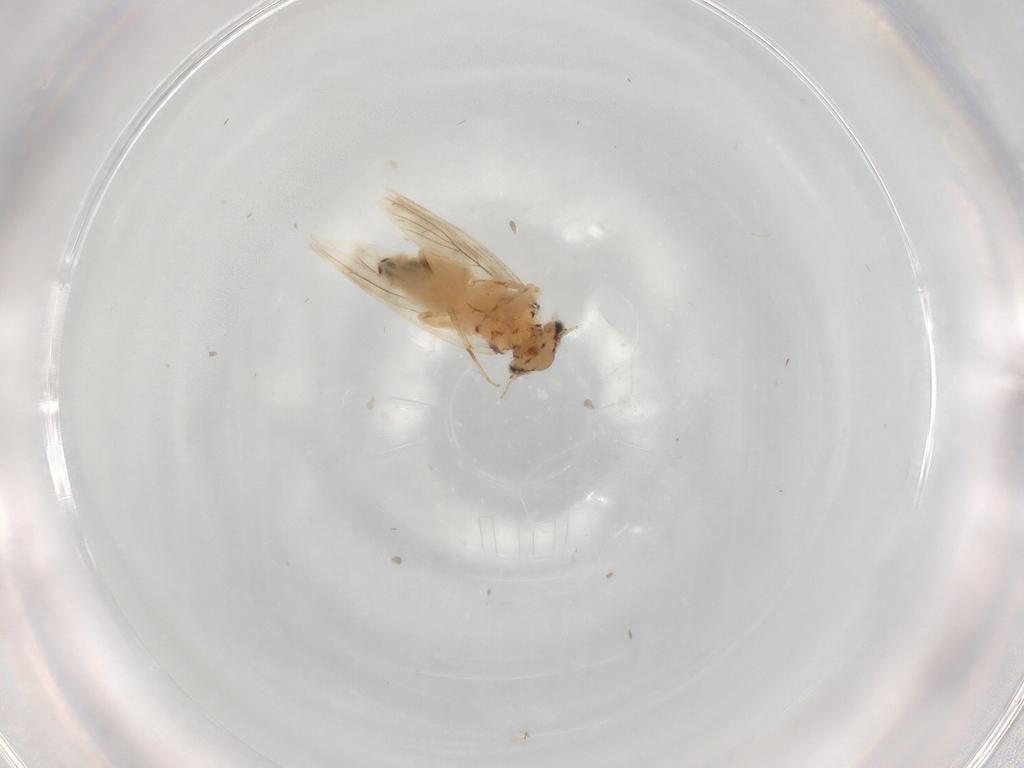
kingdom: Animalia
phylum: Arthropoda
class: Insecta
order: Psocodea
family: Lepidopsocidae
